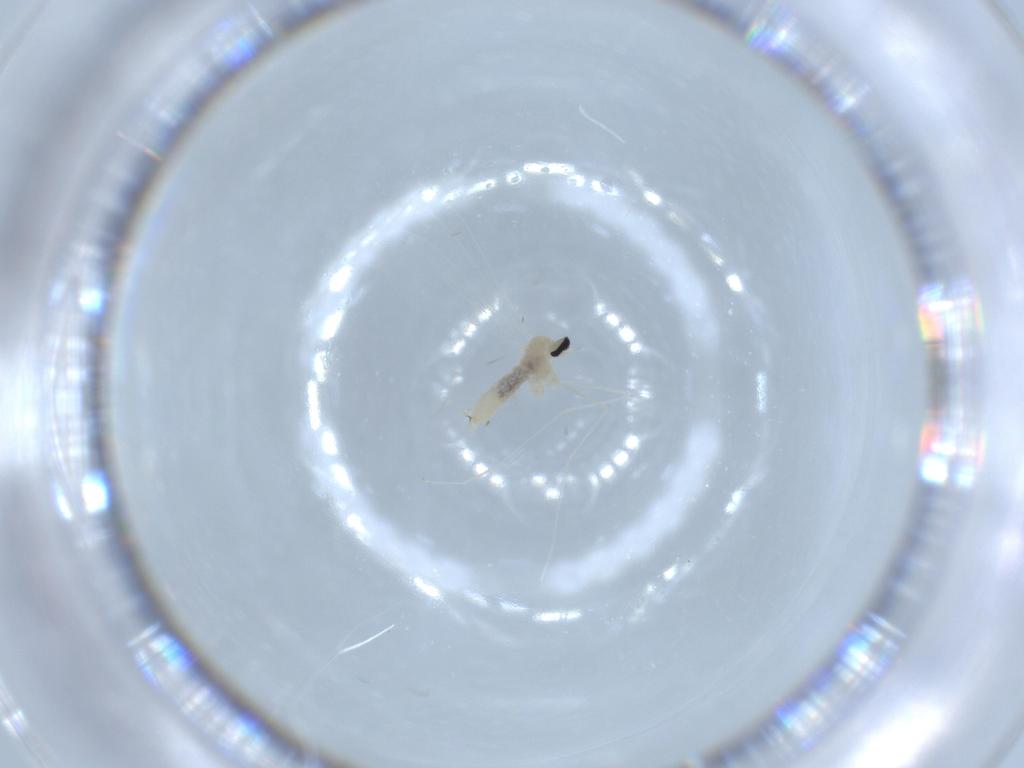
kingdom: Animalia
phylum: Arthropoda
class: Insecta
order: Diptera
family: Cecidomyiidae
